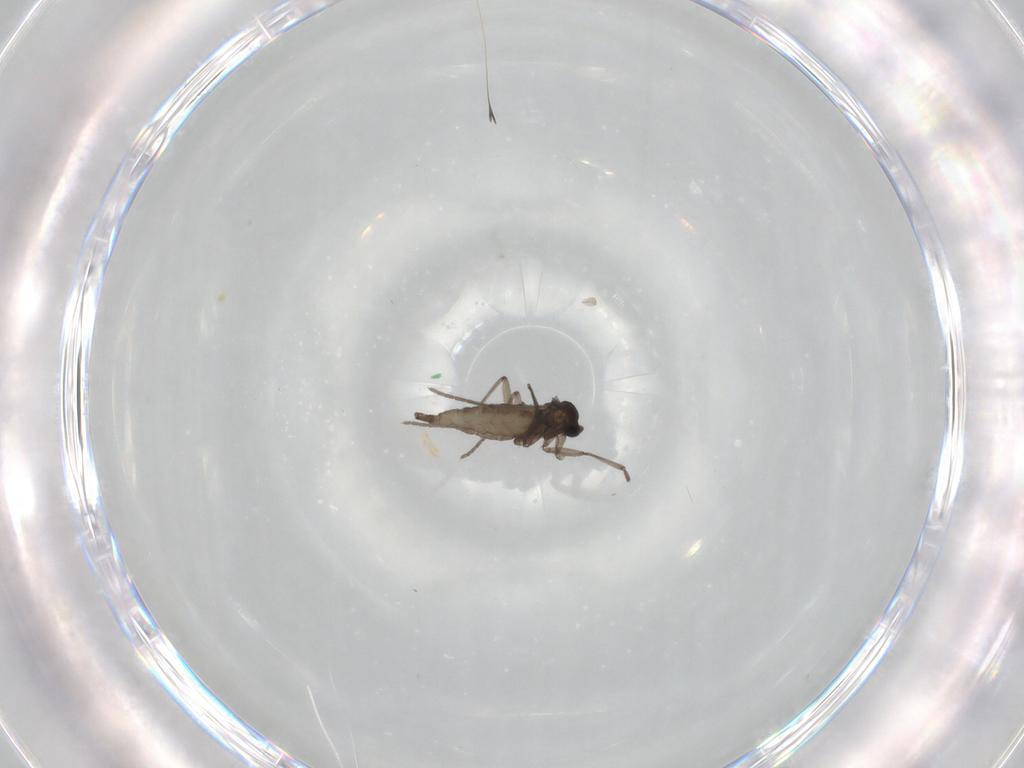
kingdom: Animalia
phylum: Arthropoda
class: Insecta
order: Diptera
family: Sciaridae
